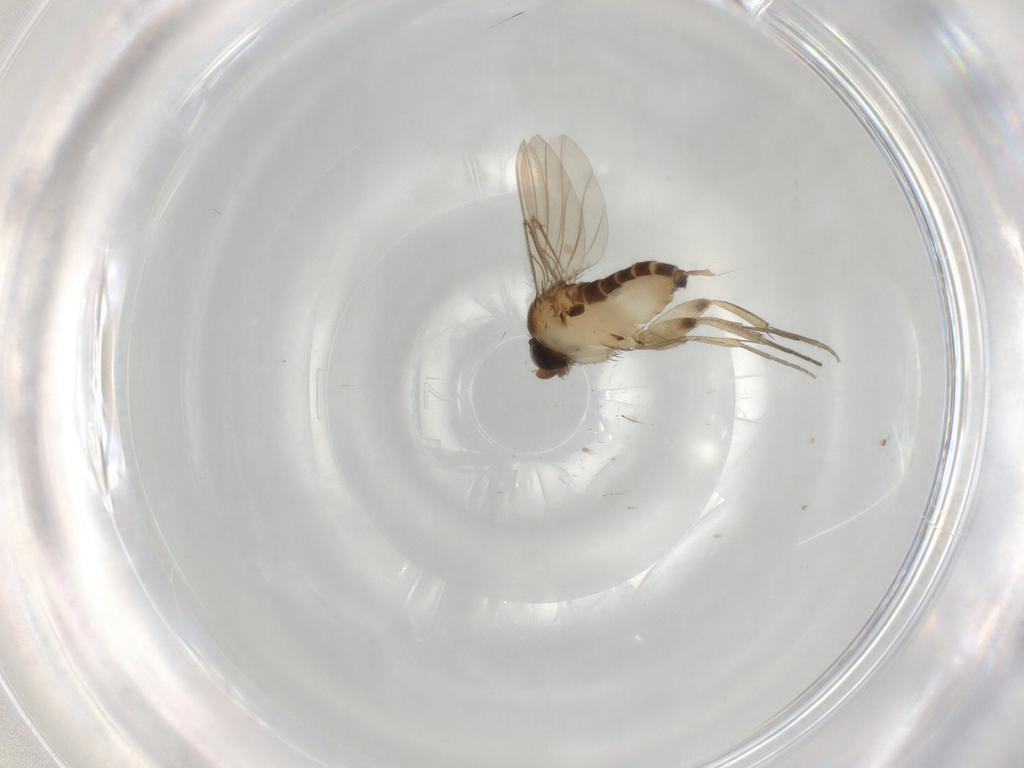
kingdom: Animalia
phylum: Arthropoda
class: Insecta
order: Diptera
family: Phoridae
